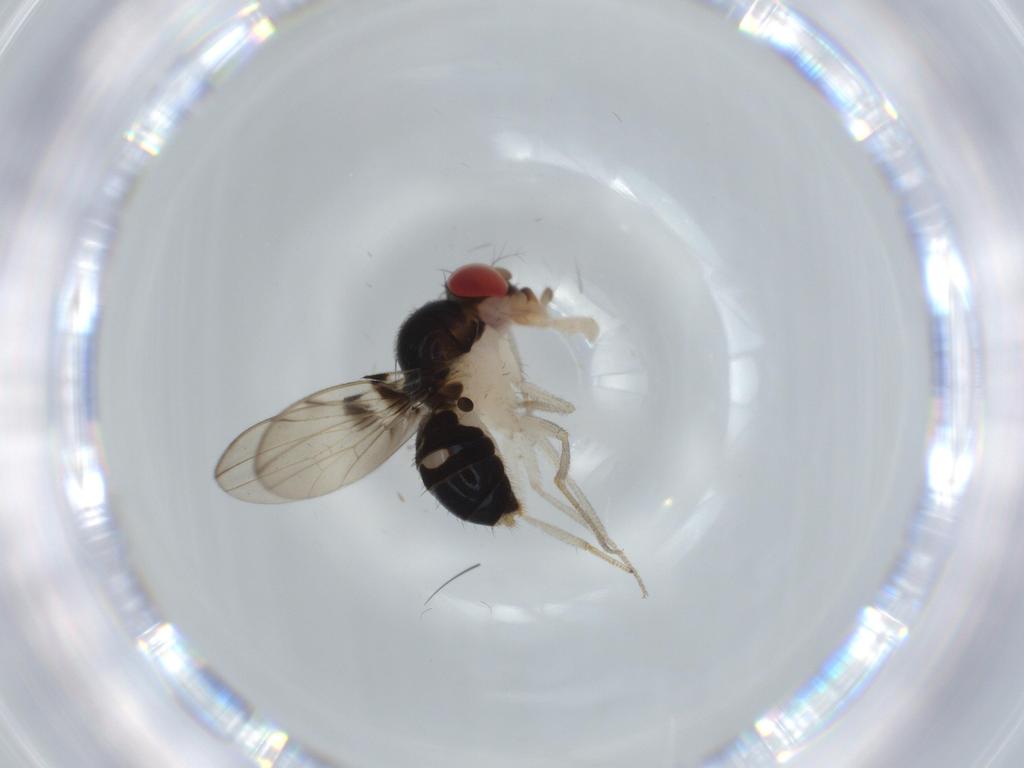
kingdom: Animalia
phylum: Arthropoda
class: Insecta
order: Diptera
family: Drosophilidae
